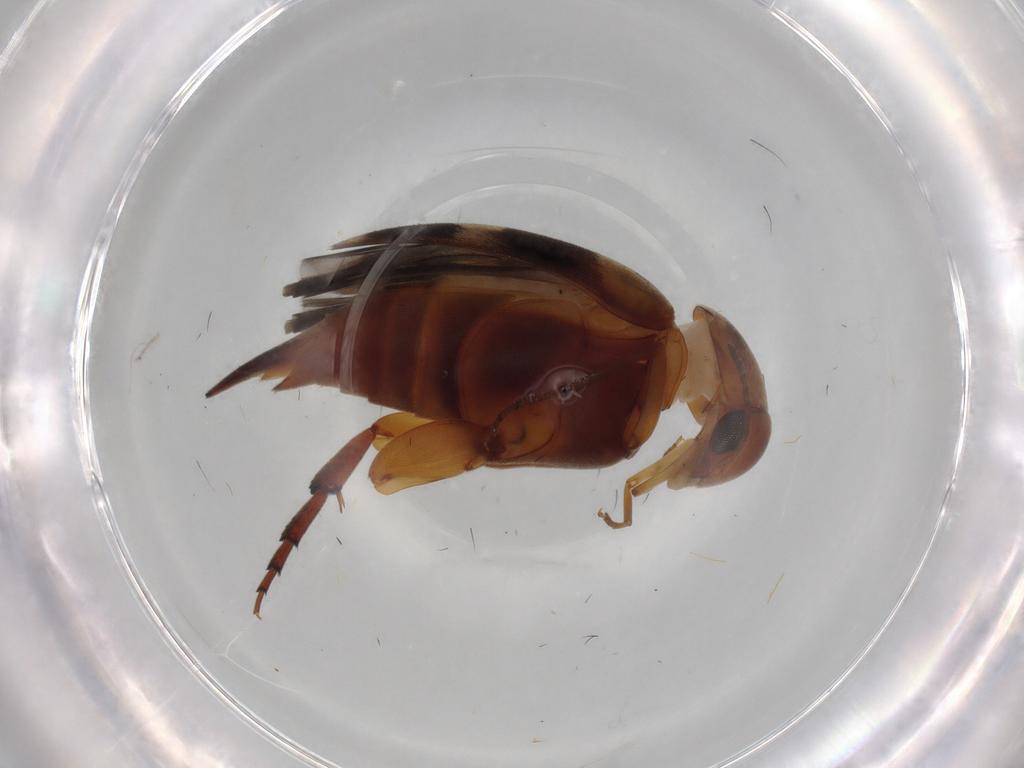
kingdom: Animalia
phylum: Arthropoda
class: Insecta
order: Coleoptera
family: Mordellidae
